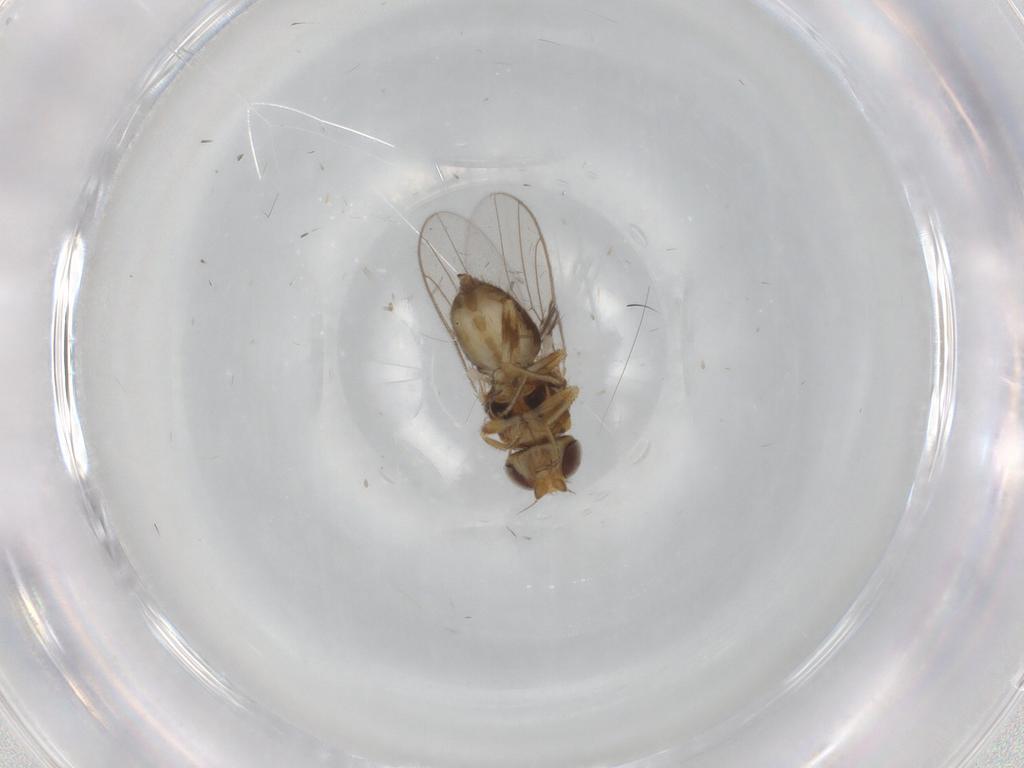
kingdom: Animalia
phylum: Arthropoda
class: Insecta
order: Diptera
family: Chloropidae
